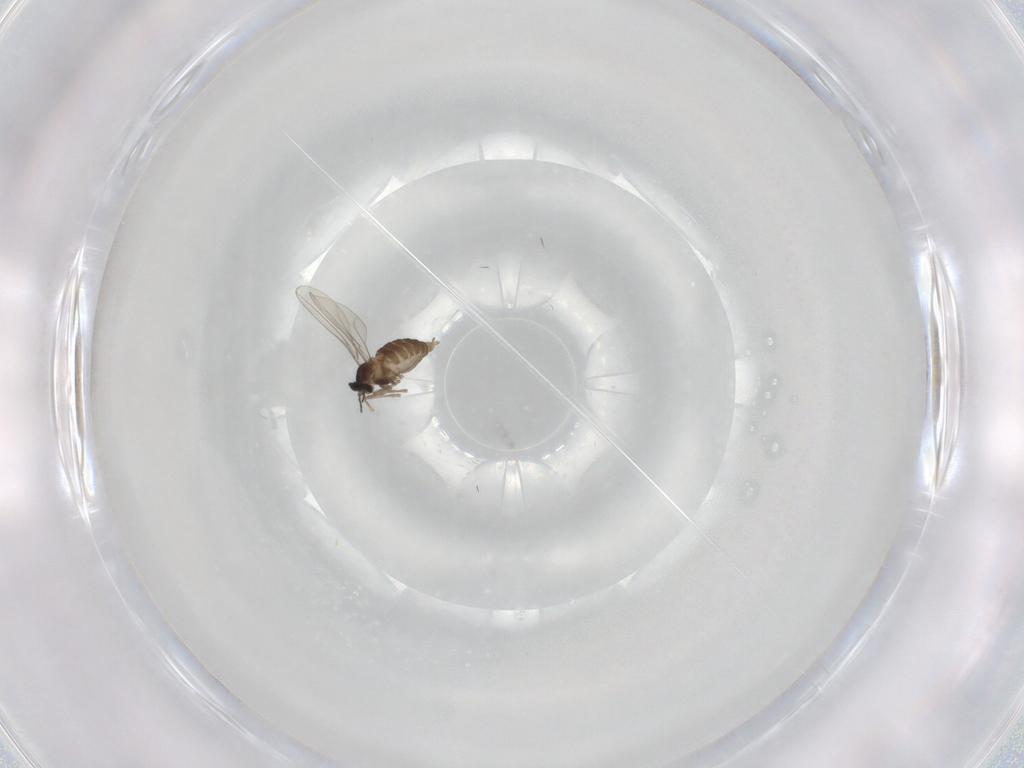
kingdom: Animalia
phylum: Arthropoda
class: Insecta
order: Diptera
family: Cecidomyiidae
